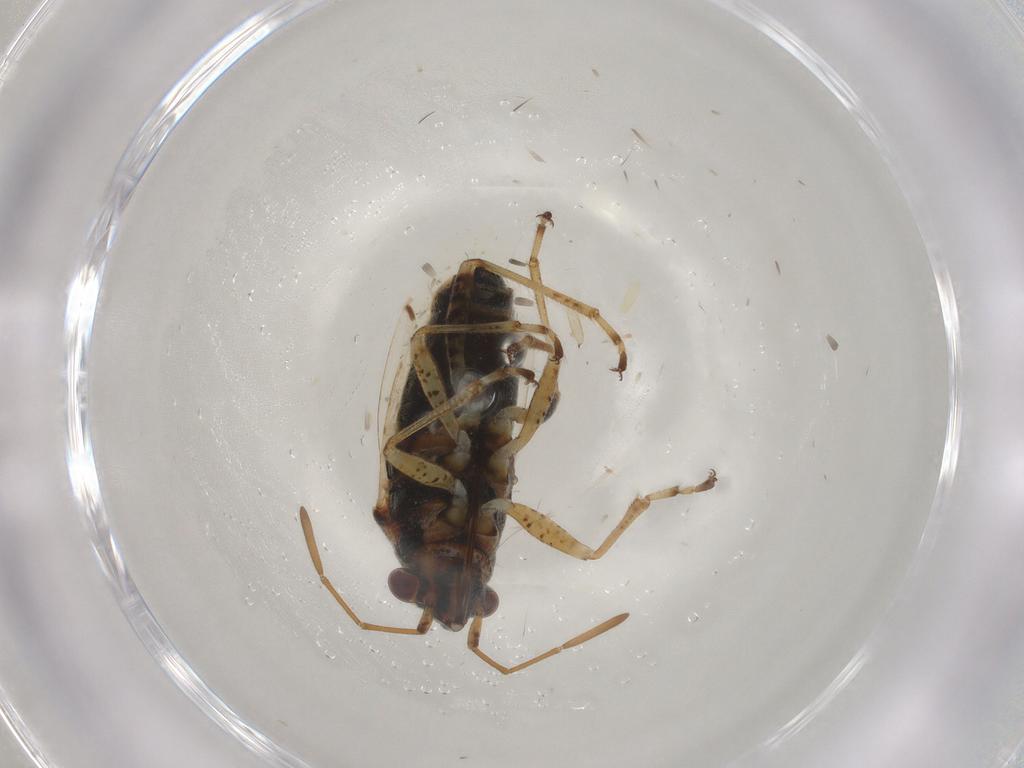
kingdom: Animalia
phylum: Arthropoda
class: Insecta
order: Hemiptera
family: Lygaeidae
